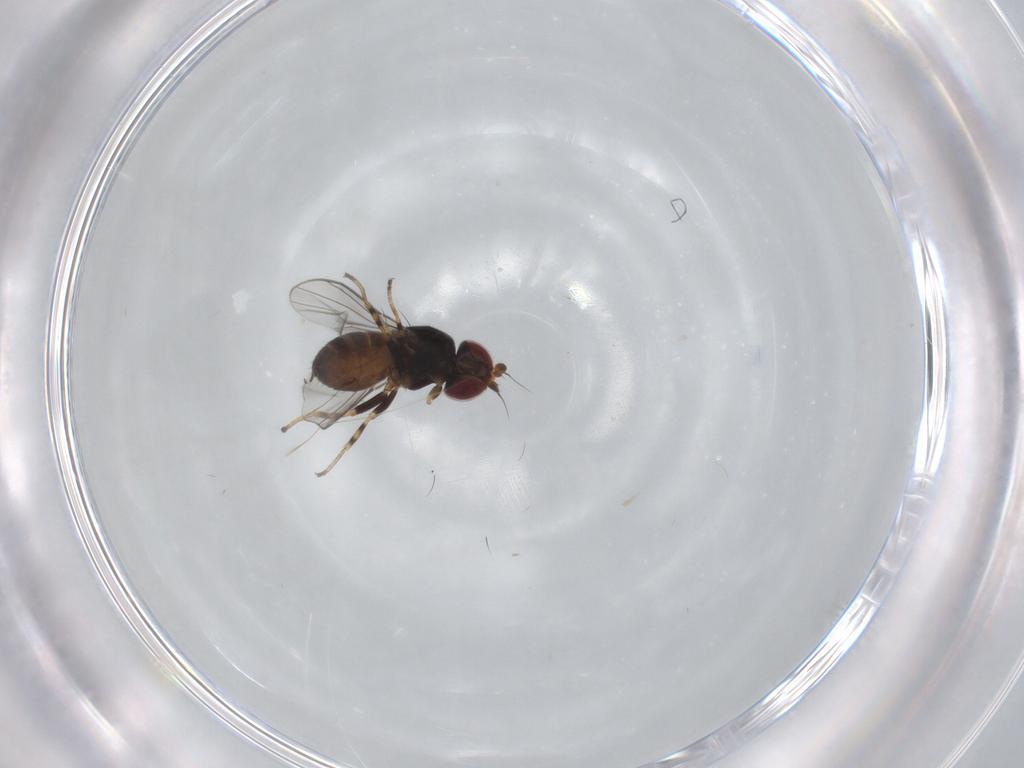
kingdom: Animalia
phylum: Arthropoda
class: Insecta
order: Diptera
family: Chloropidae
